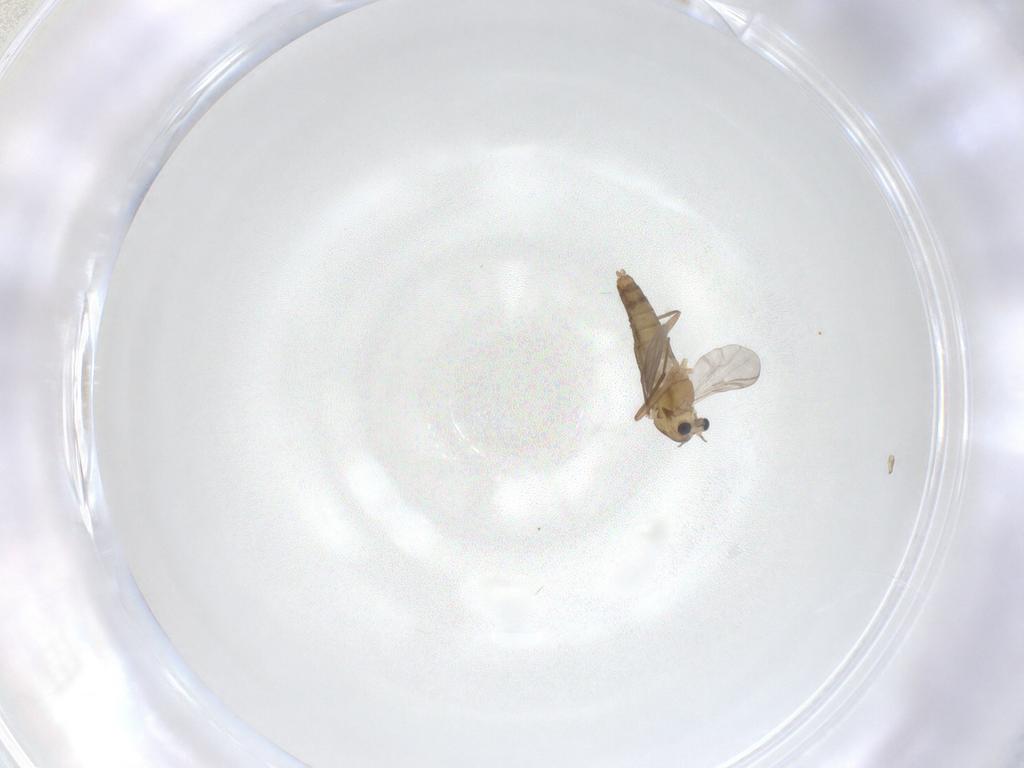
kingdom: Animalia
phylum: Arthropoda
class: Insecta
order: Diptera
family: Chironomidae
